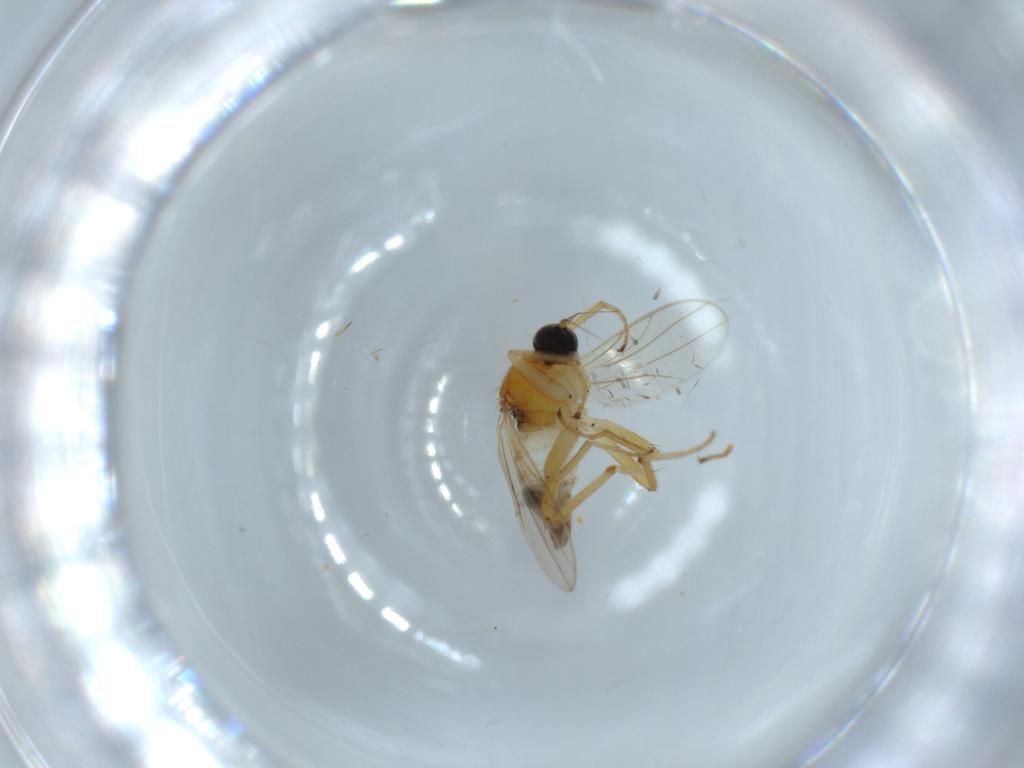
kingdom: Animalia
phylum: Arthropoda
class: Insecta
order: Diptera
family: Hybotidae
